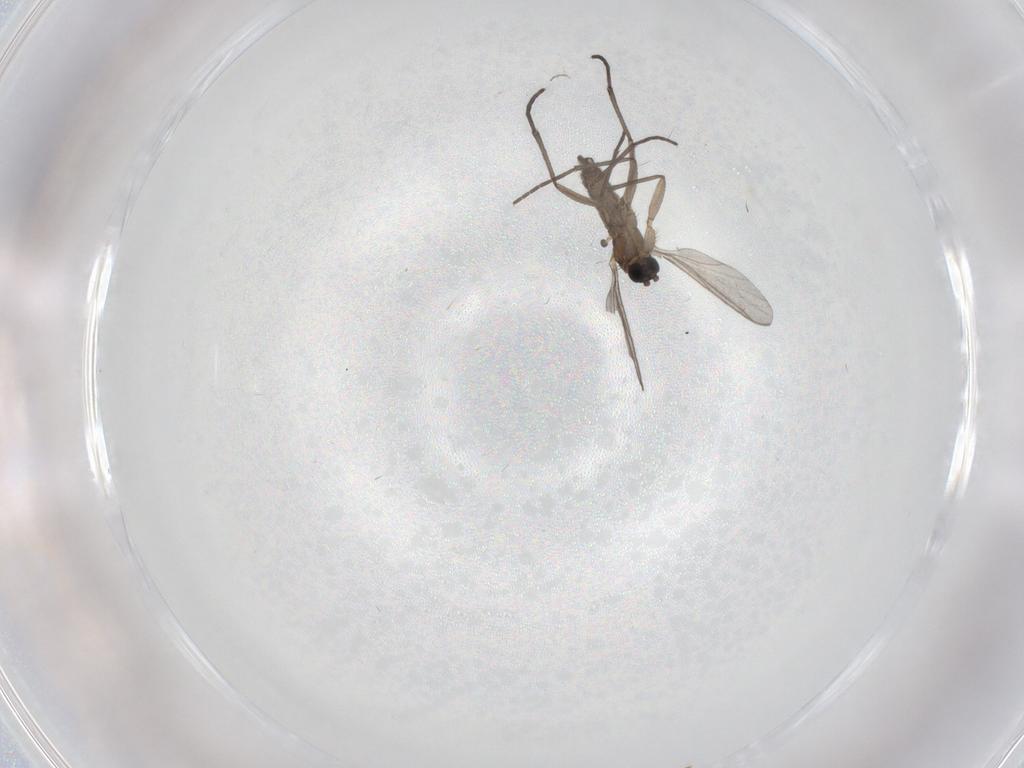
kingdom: Animalia
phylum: Arthropoda
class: Insecta
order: Diptera
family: Sciaridae
